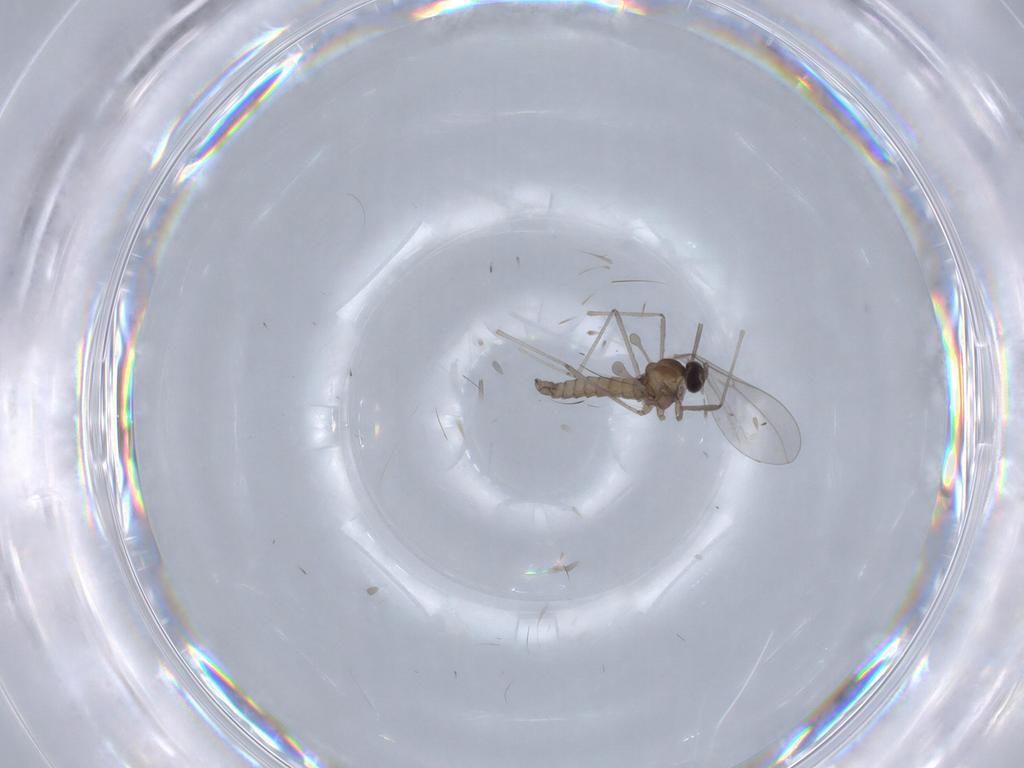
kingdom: Animalia
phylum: Arthropoda
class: Insecta
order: Diptera
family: Cecidomyiidae
